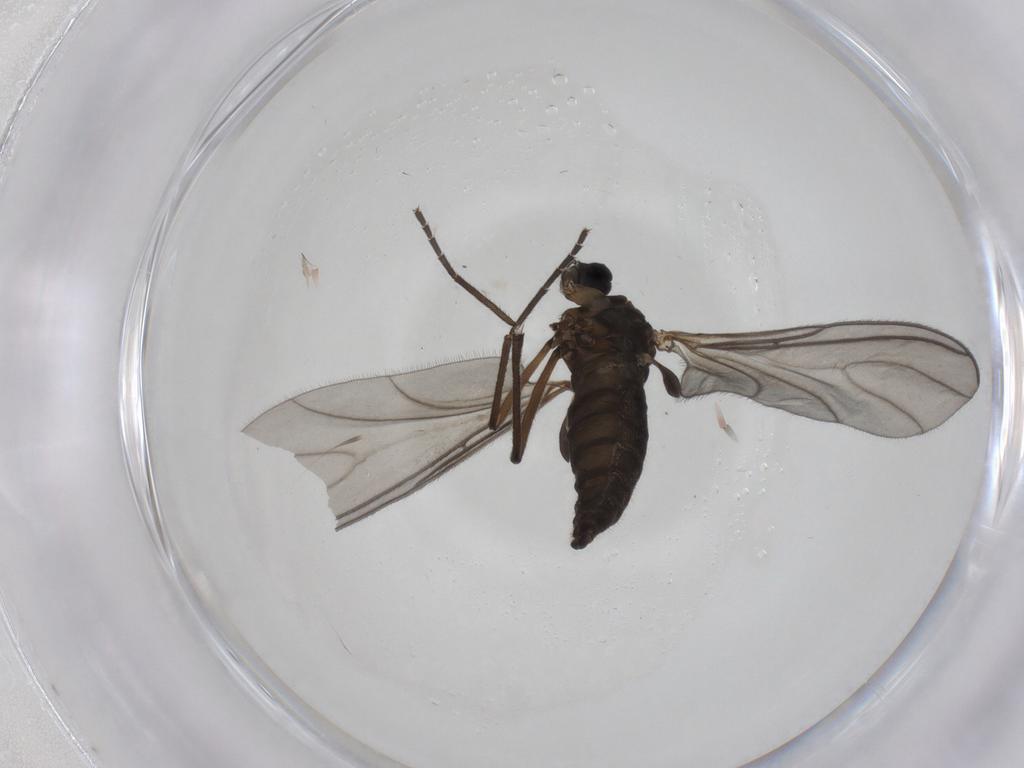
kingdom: Animalia
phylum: Arthropoda
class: Insecta
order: Diptera
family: Sciaridae
